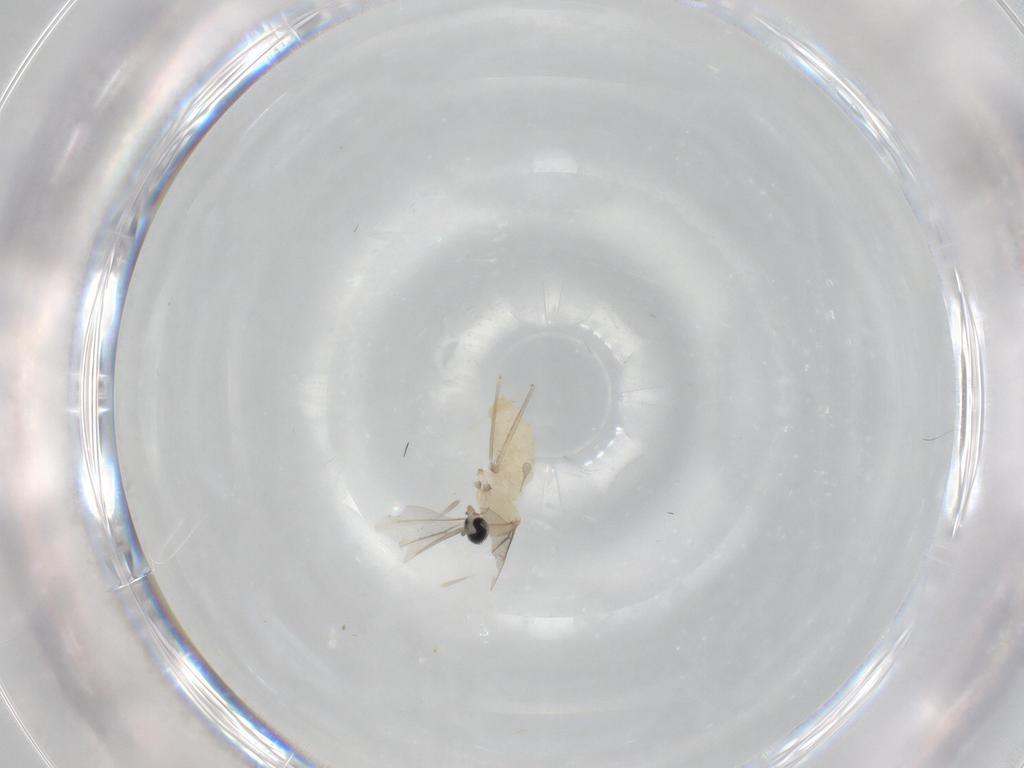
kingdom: Animalia
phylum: Arthropoda
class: Insecta
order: Diptera
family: Cecidomyiidae
